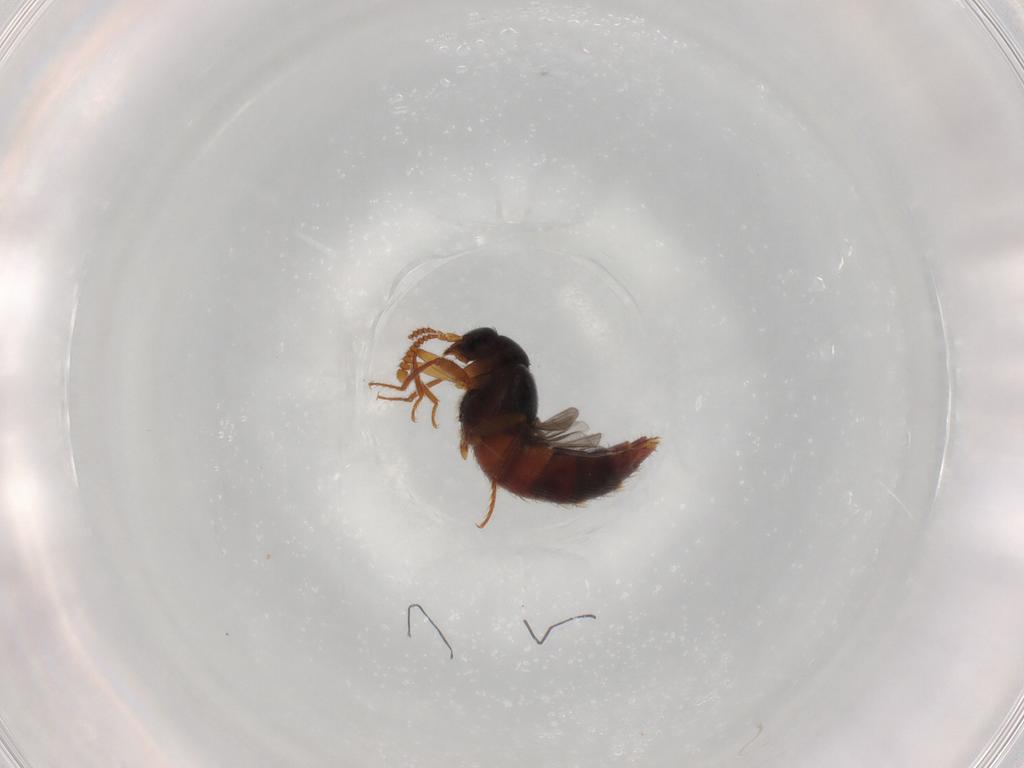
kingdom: Animalia
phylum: Arthropoda
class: Insecta
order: Coleoptera
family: Staphylinidae
